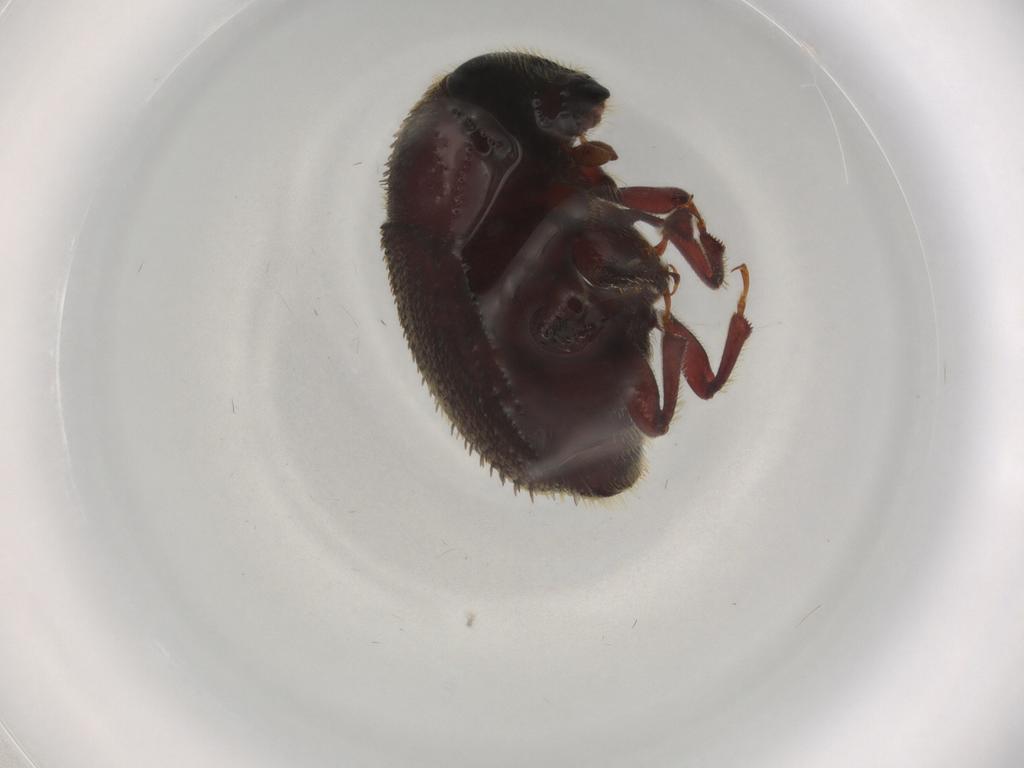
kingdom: Animalia
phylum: Arthropoda
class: Insecta
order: Coleoptera
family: Curculionidae
